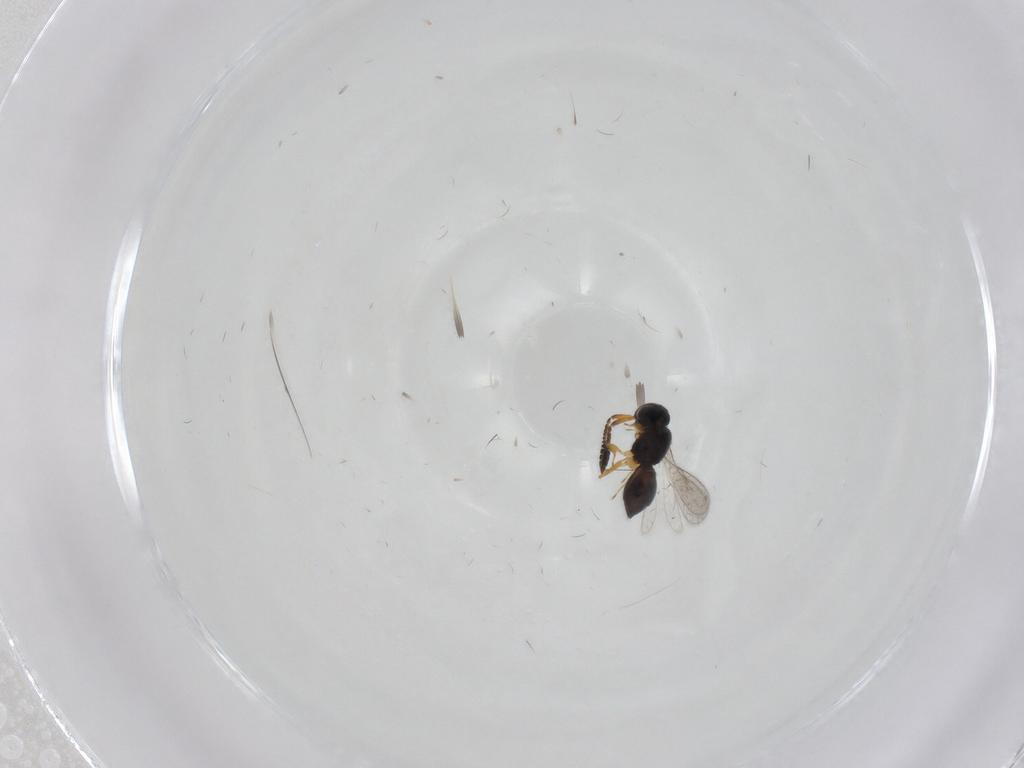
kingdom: Animalia
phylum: Arthropoda
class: Insecta
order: Hymenoptera
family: Scelionidae
